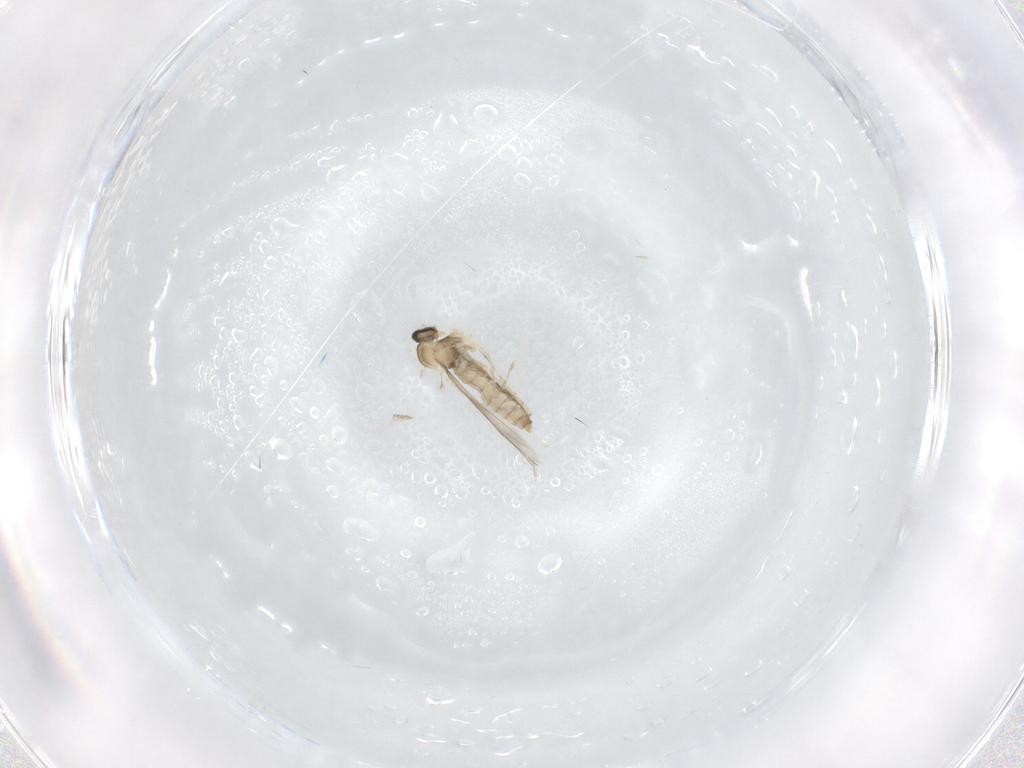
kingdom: Animalia
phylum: Arthropoda
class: Insecta
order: Diptera
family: Cecidomyiidae
